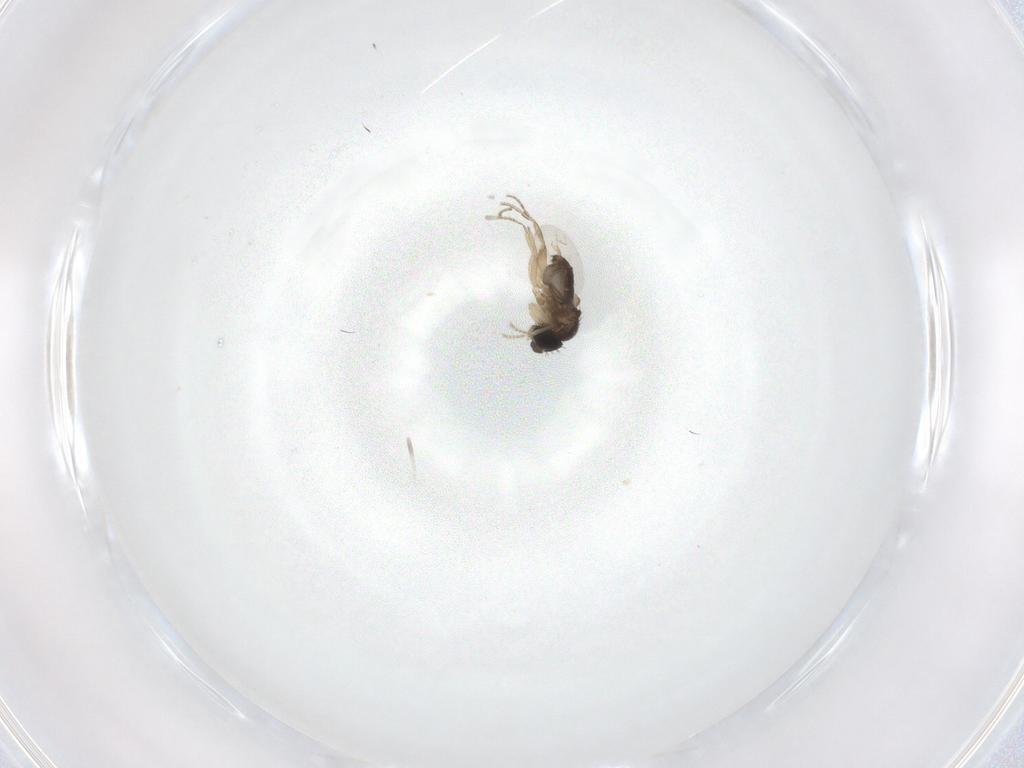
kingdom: Animalia
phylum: Arthropoda
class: Insecta
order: Diptera
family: Phoridae
